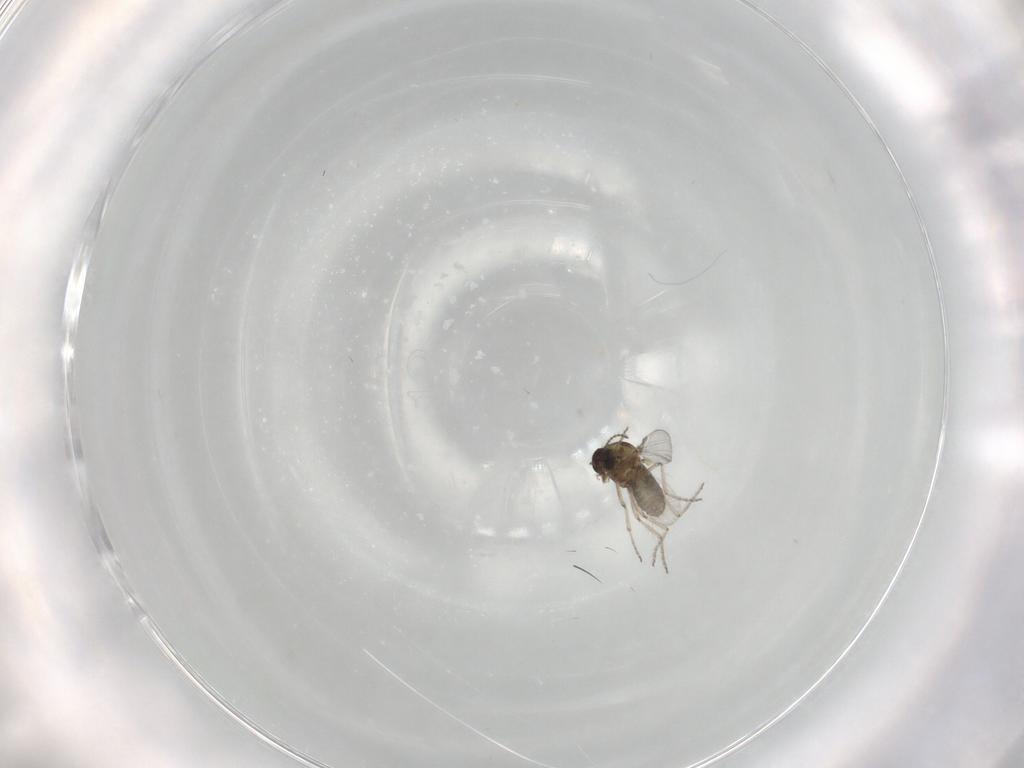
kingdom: Animalia
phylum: Arthropoda
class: Insecta
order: Diptera
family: Ceratopogonidae
